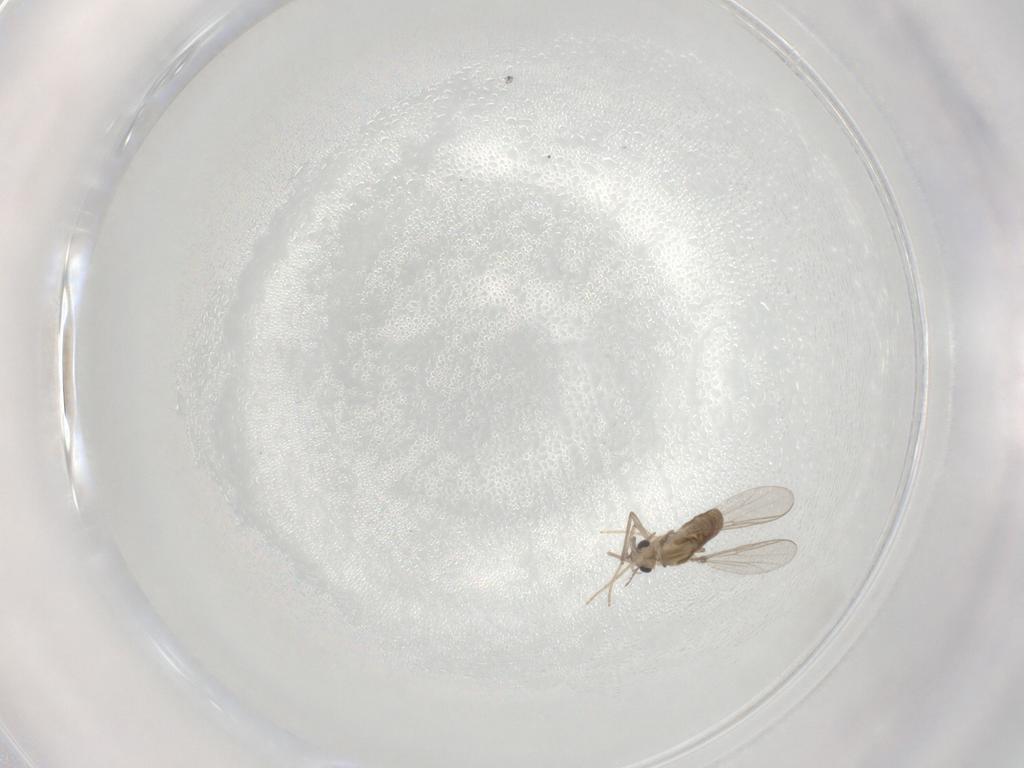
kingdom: Animalia
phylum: Arthropoda
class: Insecta
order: Diptera
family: Chironomidae
